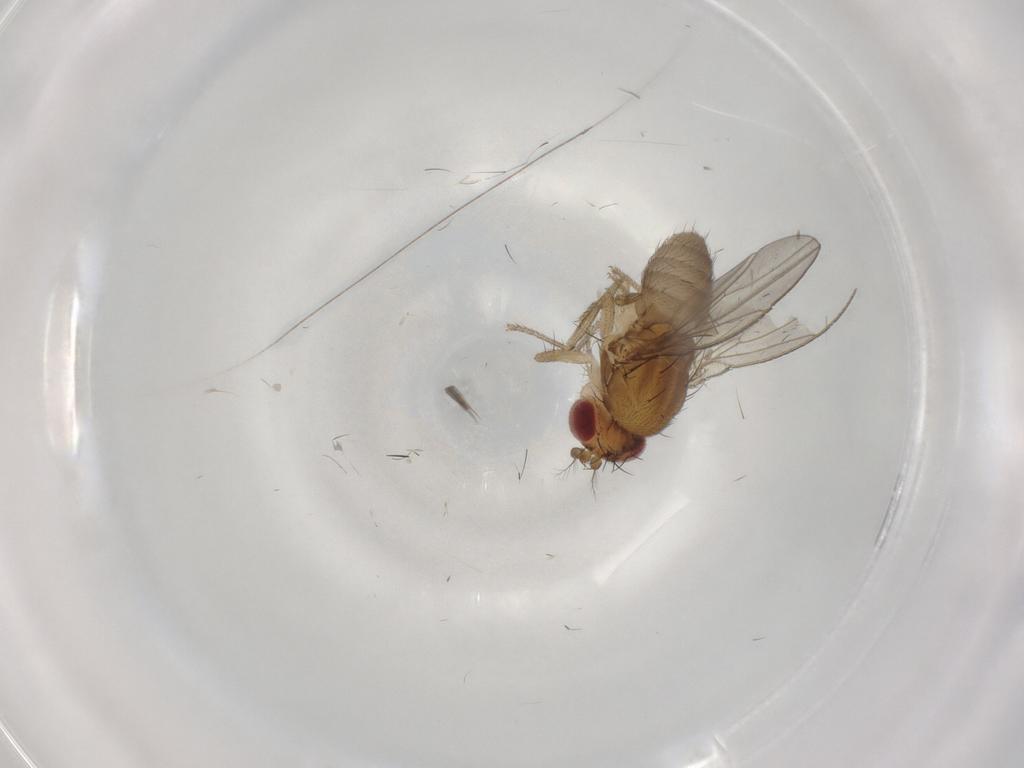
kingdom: Animalia
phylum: Arthropoda
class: Insecta
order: Diptera
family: Drosophilidae
